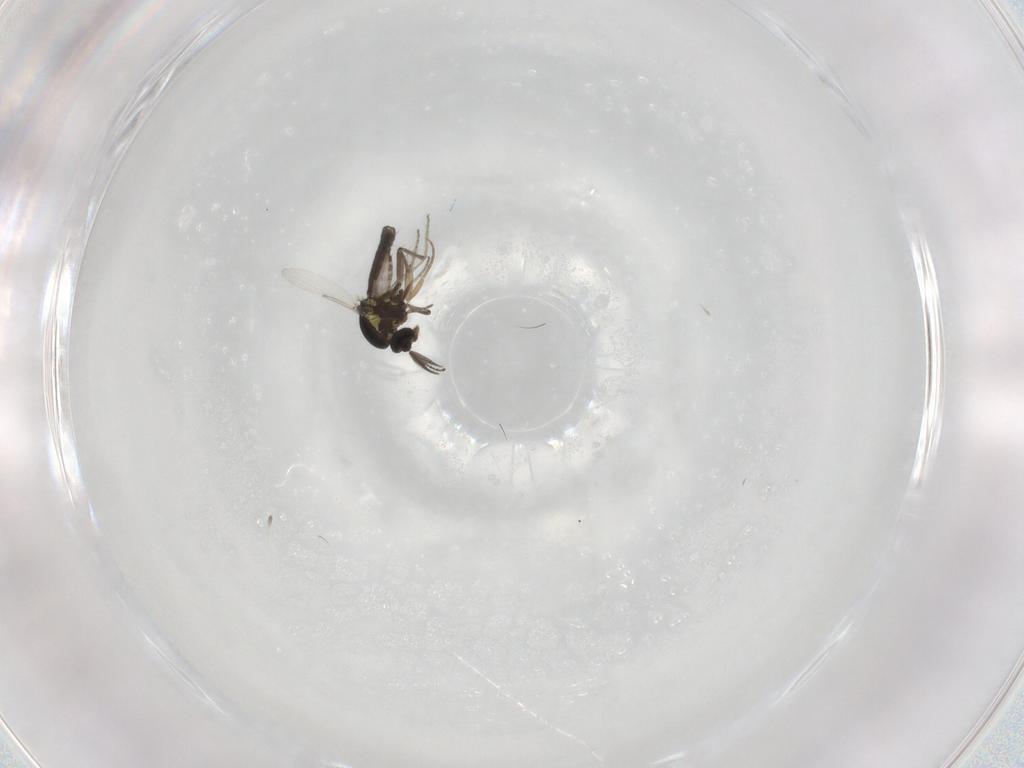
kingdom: Animalia
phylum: Arthropoda
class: Insecta
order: Diptera
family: Ceratopogonidae
